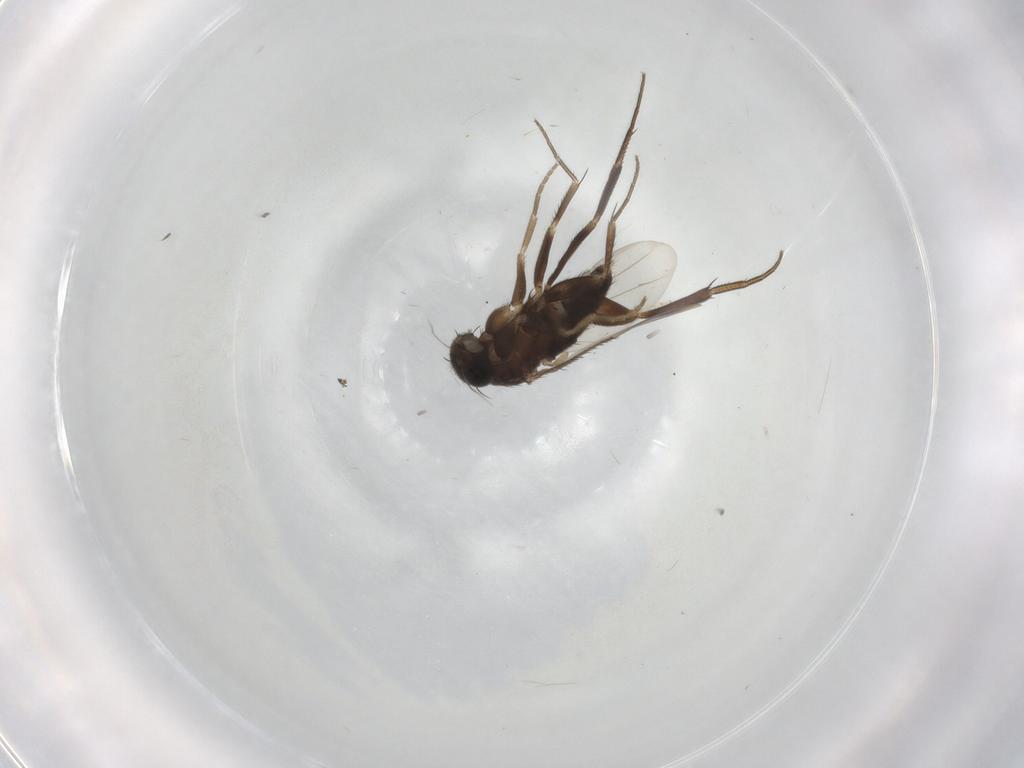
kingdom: Animalia
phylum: Arthropoda
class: Insecta
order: Diptera
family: Phoridae
